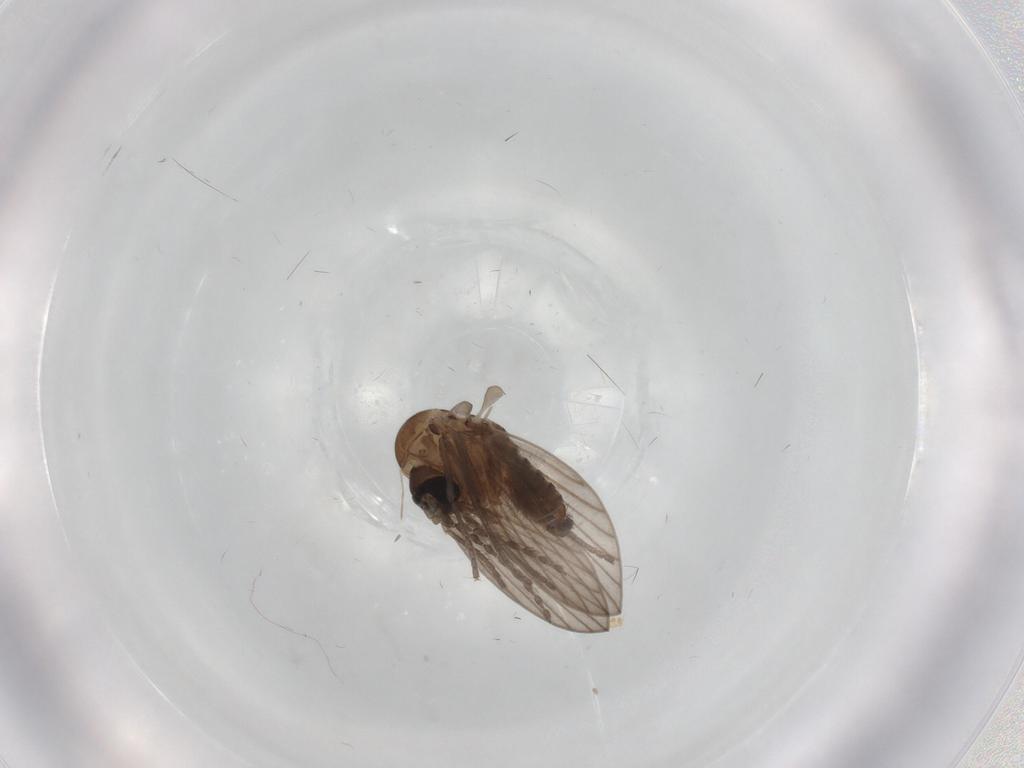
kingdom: Animalia
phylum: Arthropoda
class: Insecta
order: Diptera
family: Psychodidae
